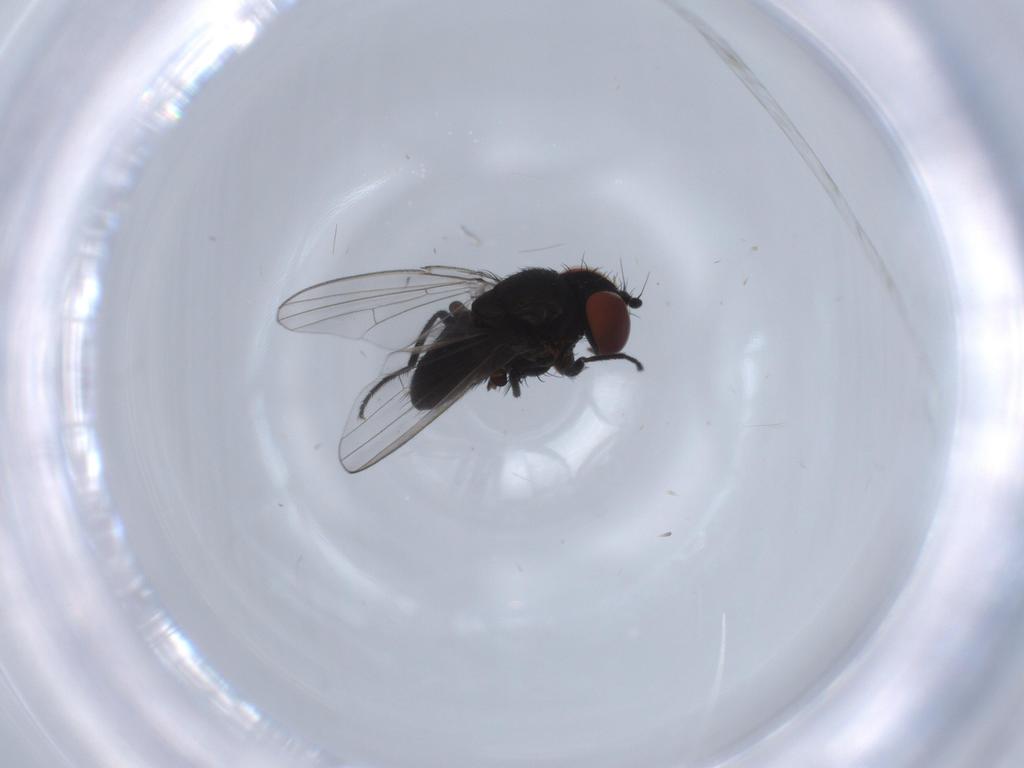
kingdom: Animalia
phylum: Arthropoda
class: Insecta
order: Diptera
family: Milichiidae
